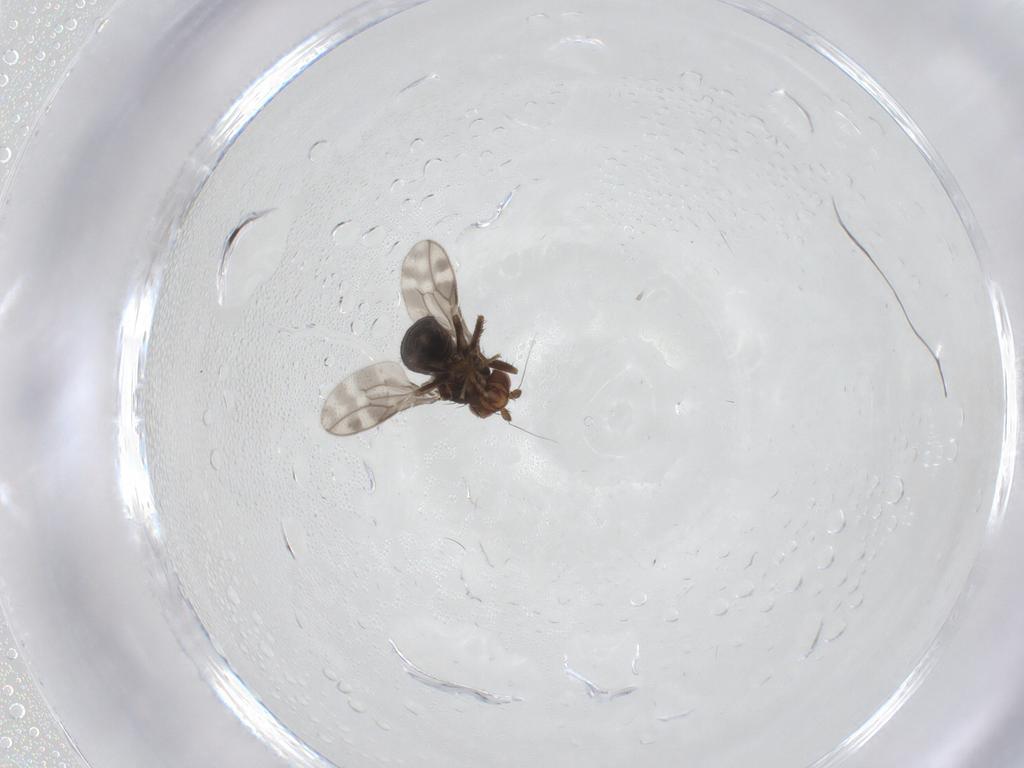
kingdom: Animalia
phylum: Arthropoda
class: Insecta
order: Diptera
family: Sphaeroceridae
